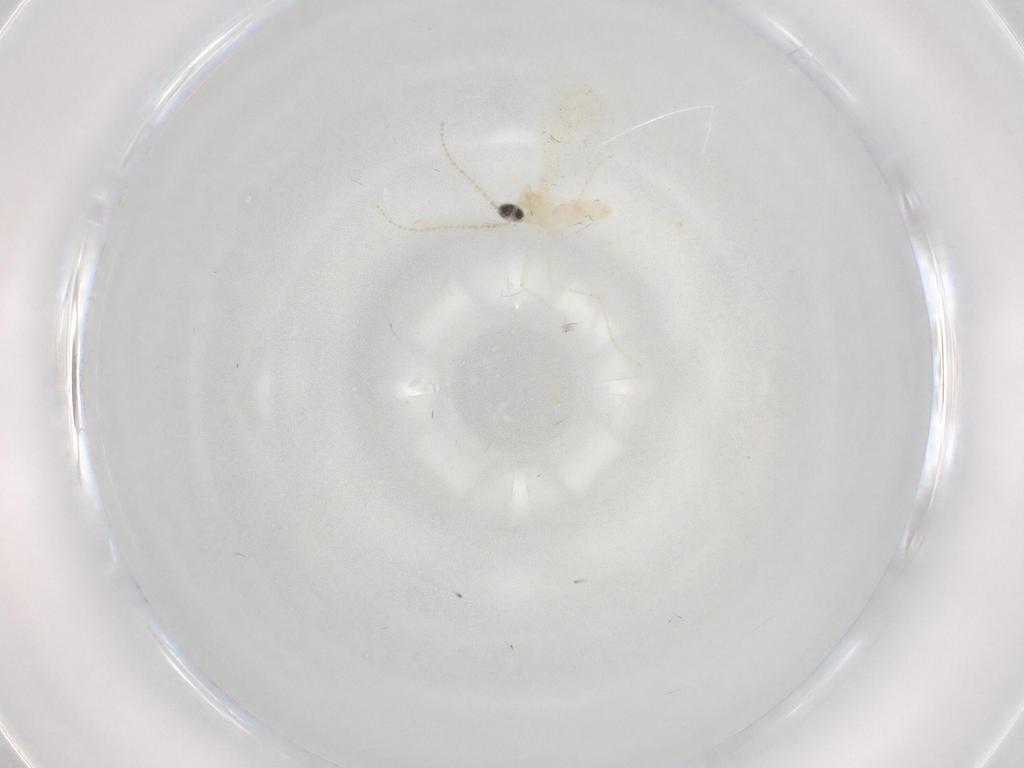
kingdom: Animalia
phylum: Arthropoda
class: Insecta
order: Diptera
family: Cecidomyiidae
